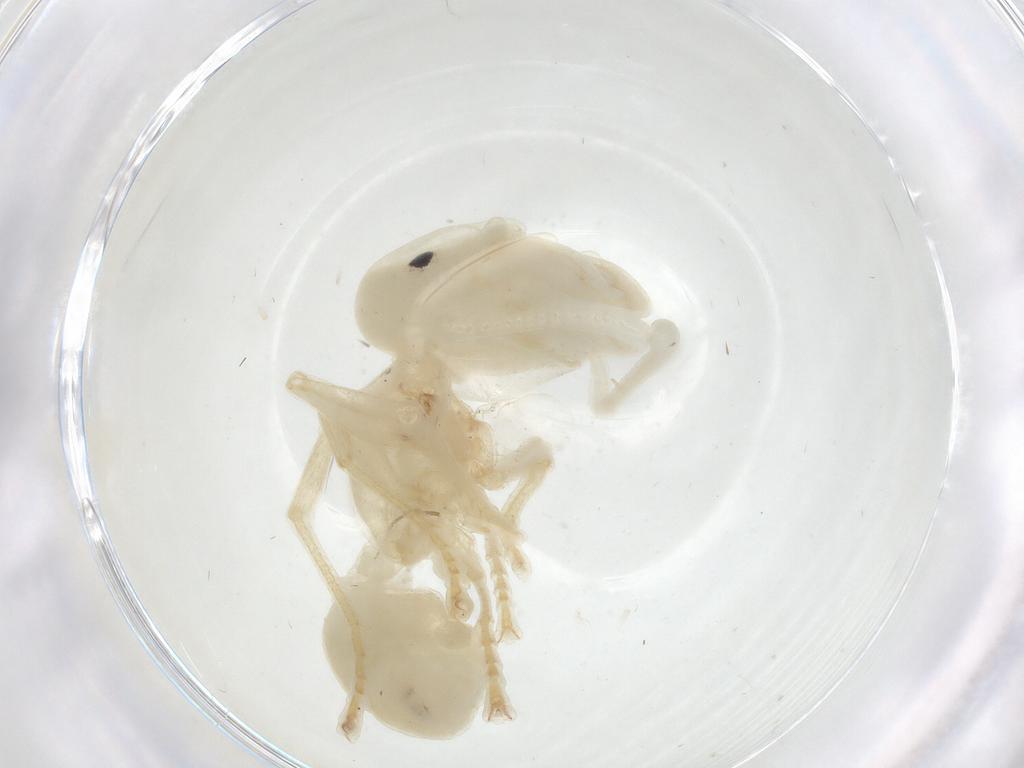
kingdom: Animalia
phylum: Arthropoda
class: Insecta
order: Hymenoptera
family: Formicidae
